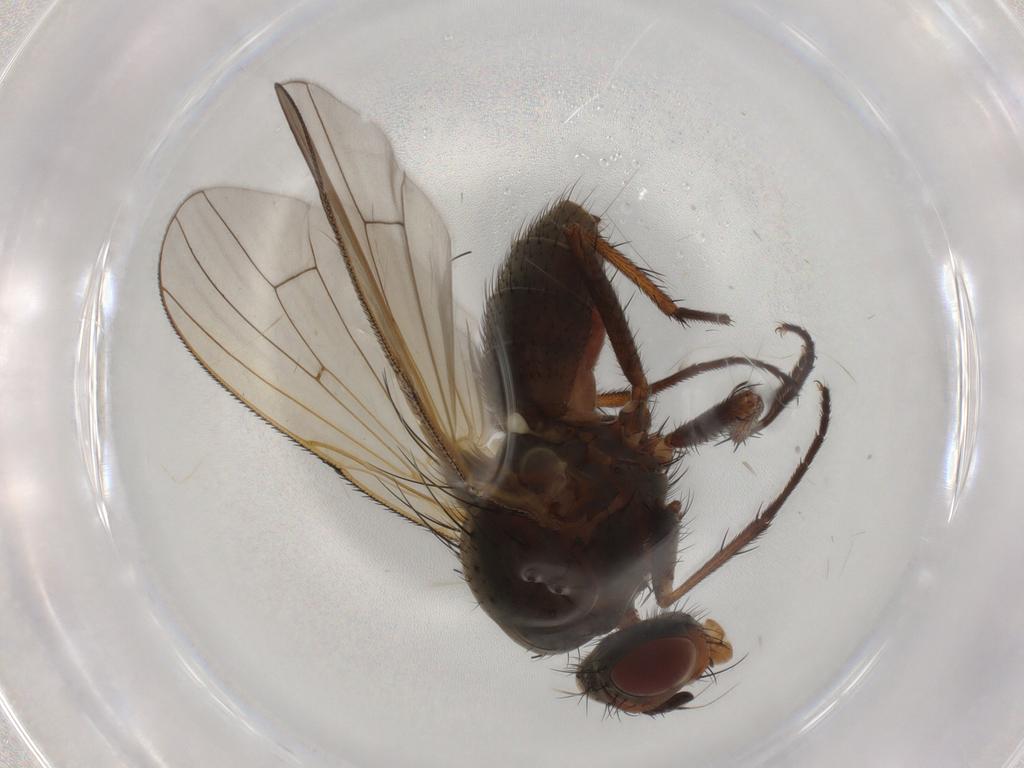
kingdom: Animalia
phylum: Arthropoda
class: Insecta
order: Diptera
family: Anthomyiidae
